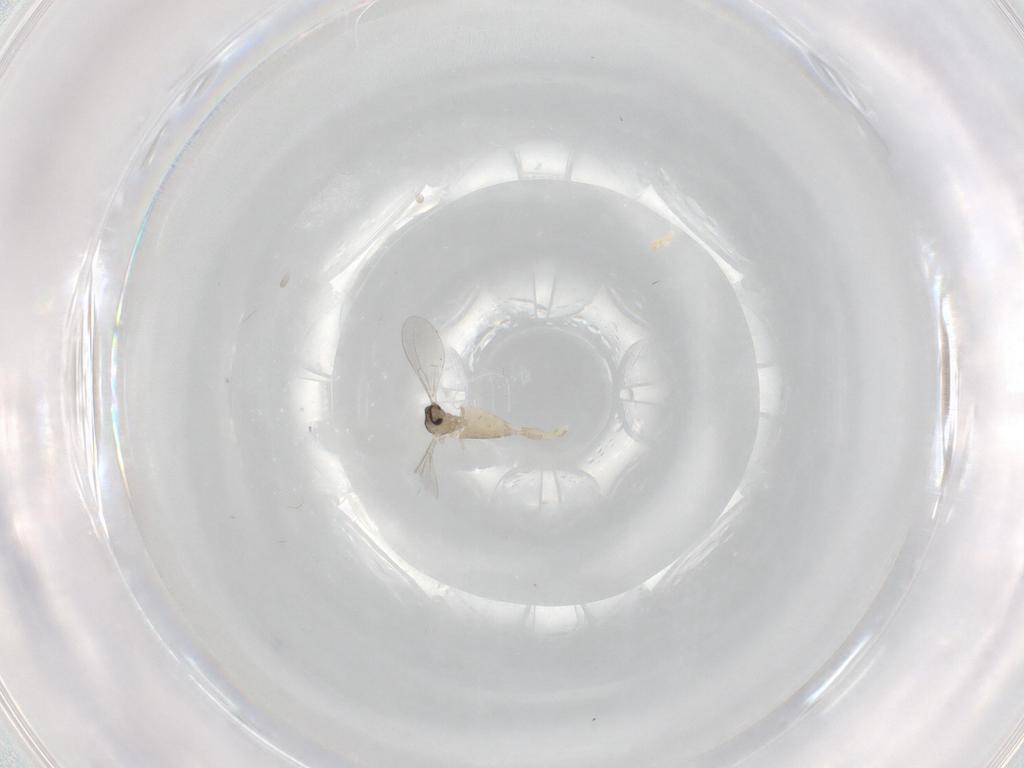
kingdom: Animalia
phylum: Arthropoda
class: Insecta
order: Diptera
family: Cecidomyiidae
